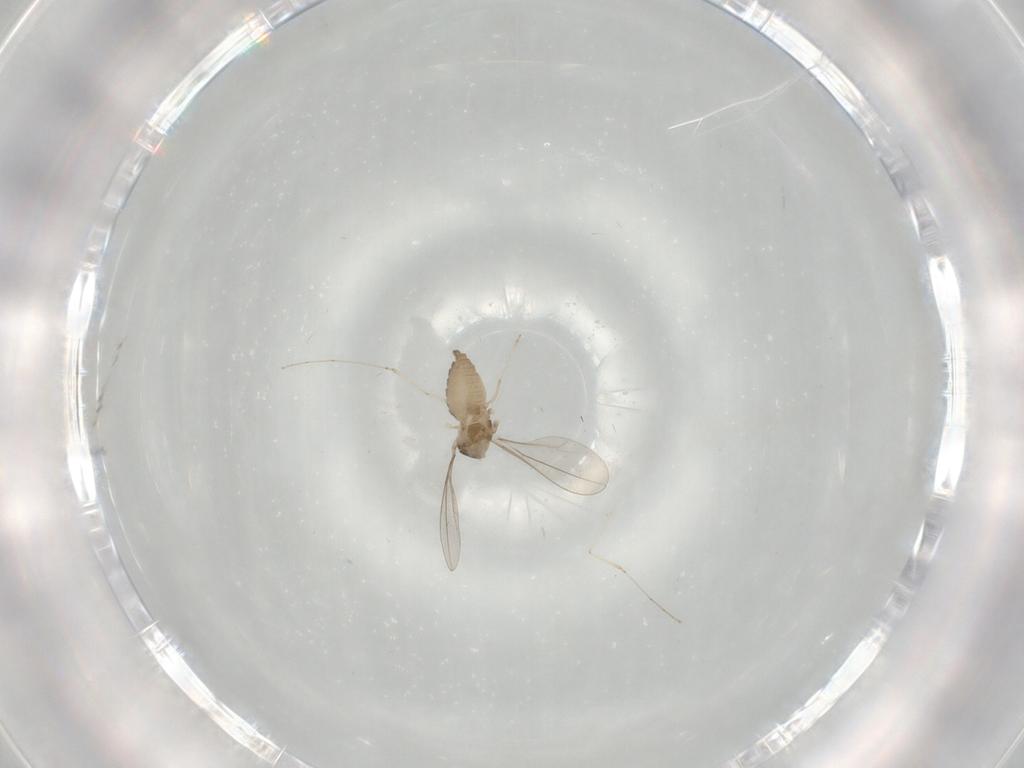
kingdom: Animalia
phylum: Arthropoda
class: Insecta
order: Diptera
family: Cecidomyiidae
